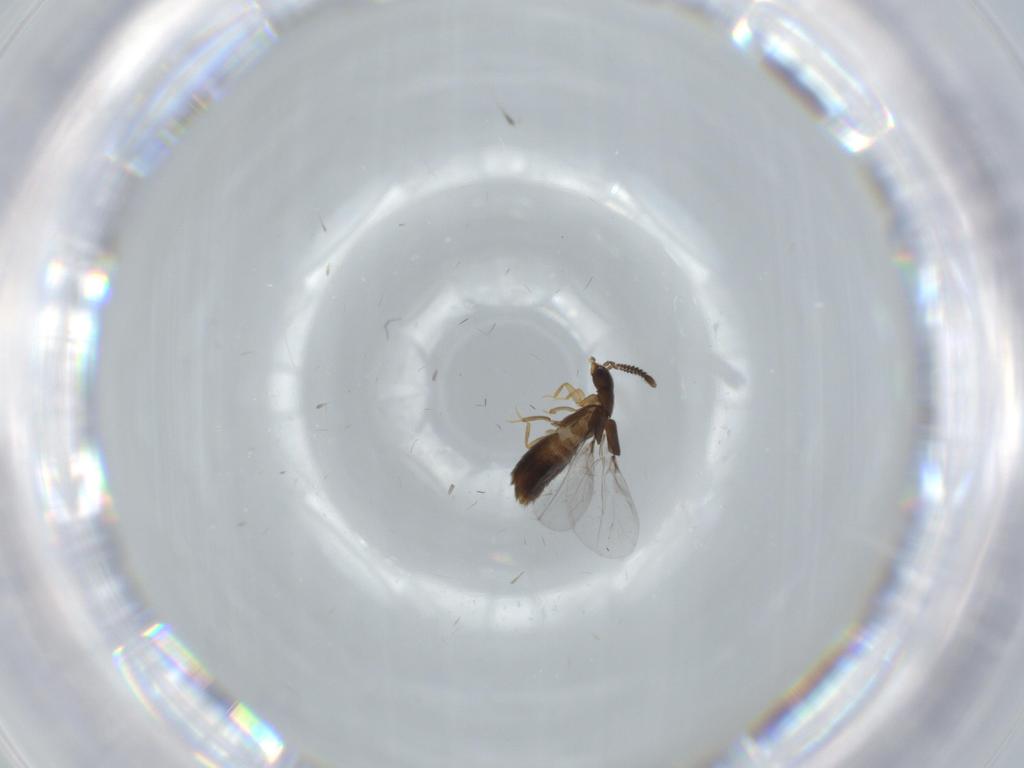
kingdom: Animalia
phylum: Arthropoda
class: Insecta
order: Coleoptera
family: Staphylinidae
